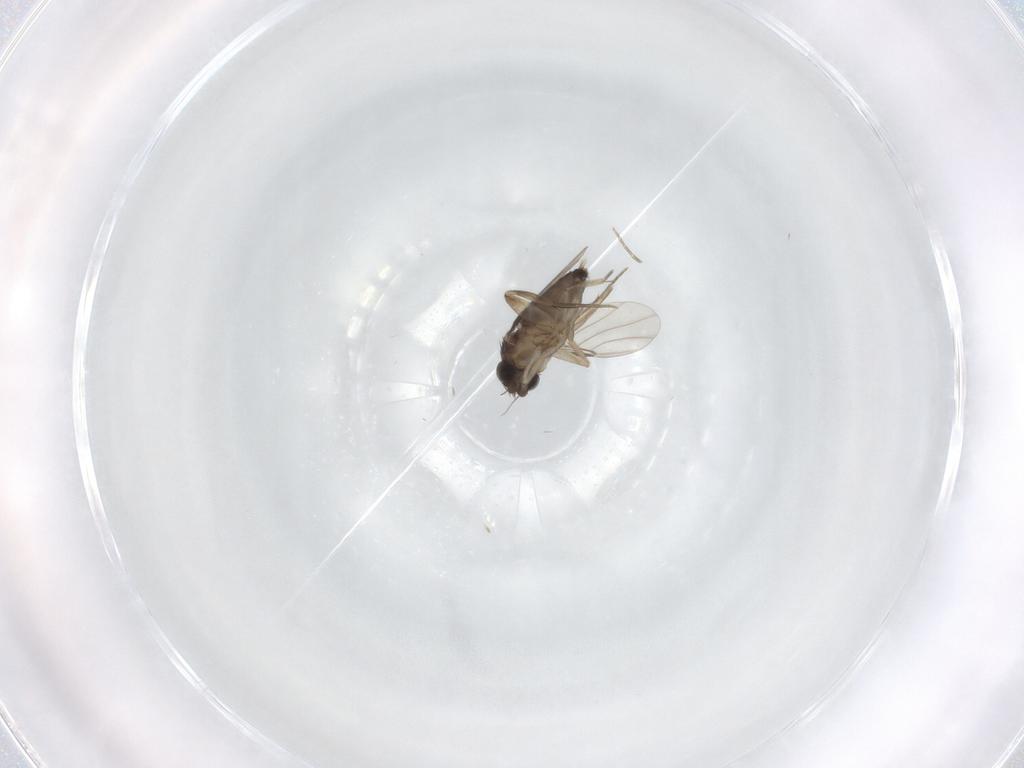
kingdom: Animalia
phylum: Arthropoda
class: Insecta
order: Diptera
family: Phoridae
